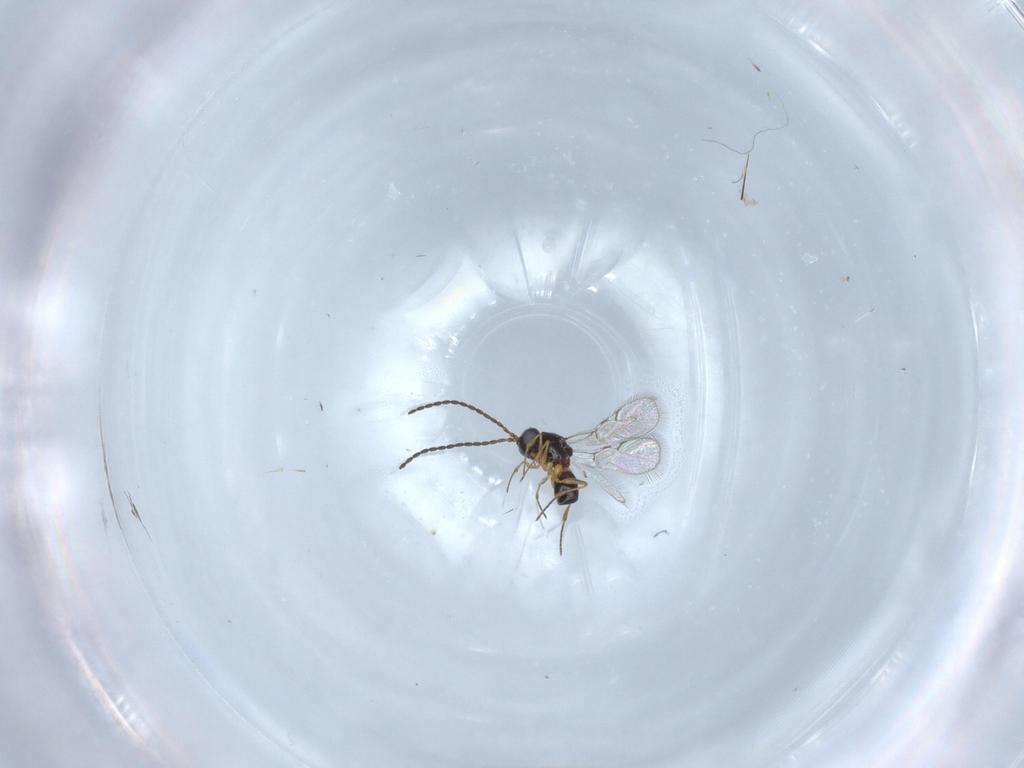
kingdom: Animalia
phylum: Arthropoda
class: Insecta
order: Hymenoptera
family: Figitidae
